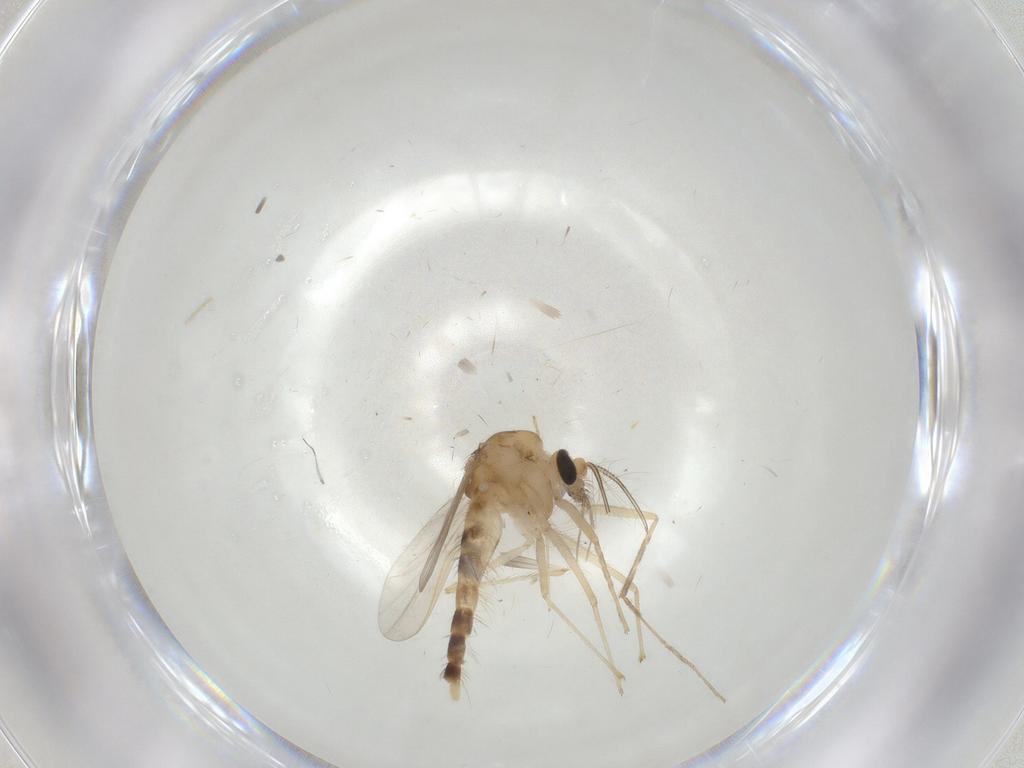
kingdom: Animalia
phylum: Arthropoda
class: Insecta
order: Diptera
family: Chironomidae
